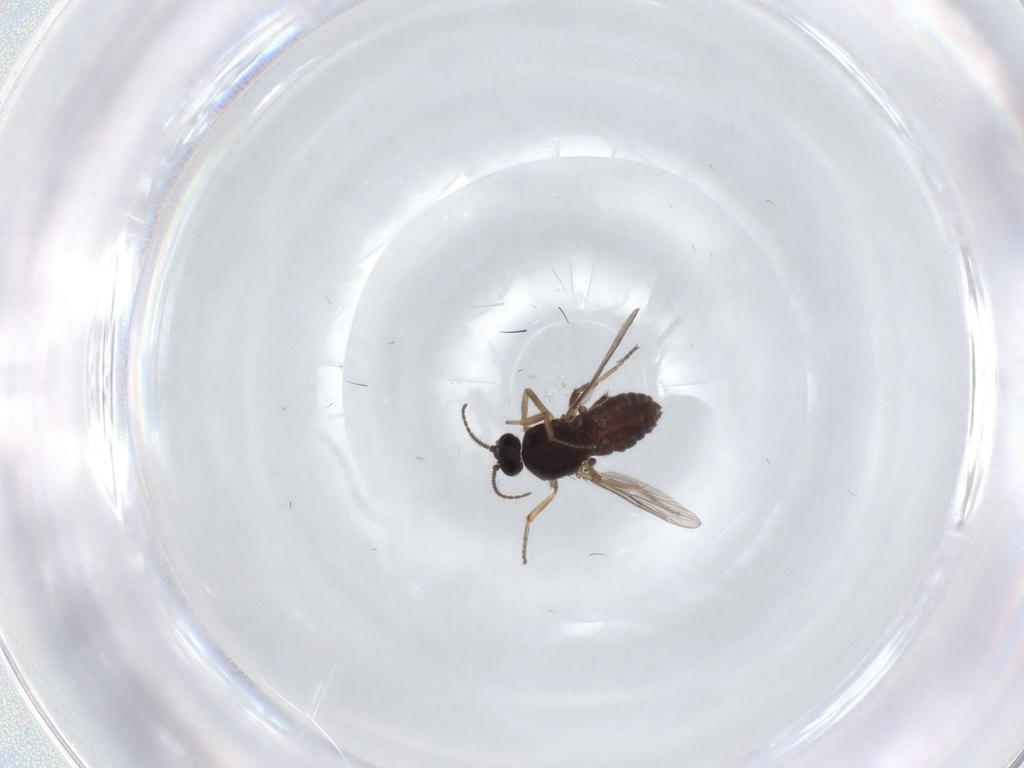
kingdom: Animalia
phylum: Arthropoda
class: Insecta
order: Diptera
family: Ceratopogonidae
